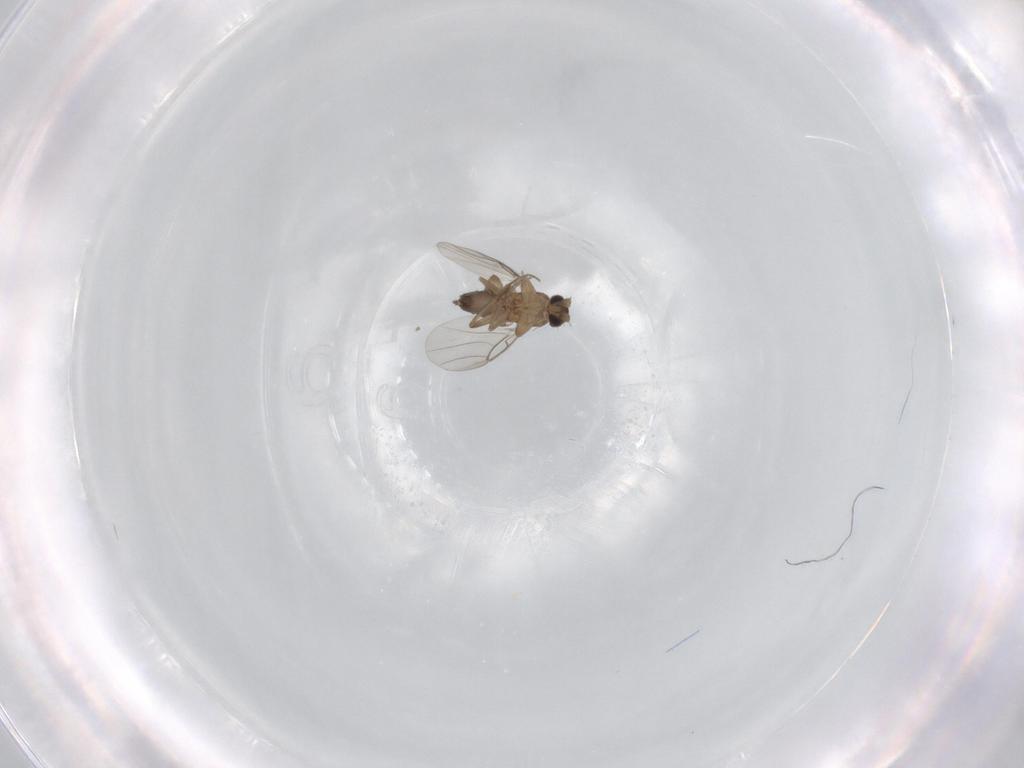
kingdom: Animalia
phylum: Arthropoda
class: Insecta
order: Diptera
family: Phoridae
